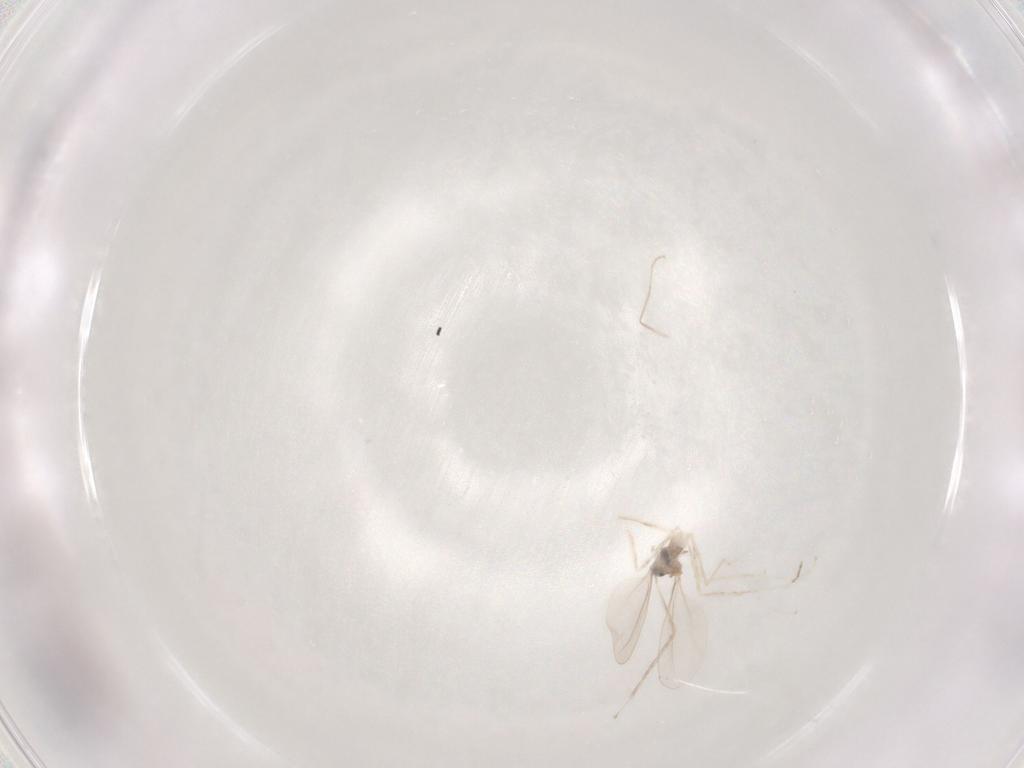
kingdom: Animalia
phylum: Arthropoda
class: Insecta
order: Diptera
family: Cecidomyiidae
